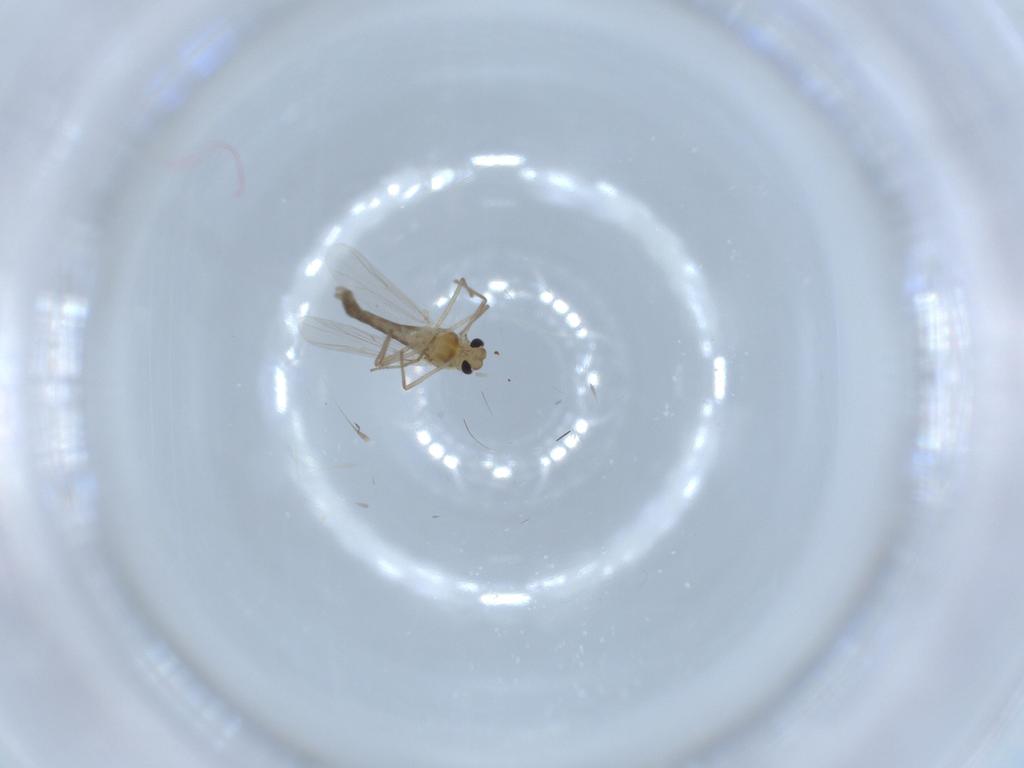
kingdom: Animalia
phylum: Arthropoda
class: Insecta
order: Diptera
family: Chironomidae
